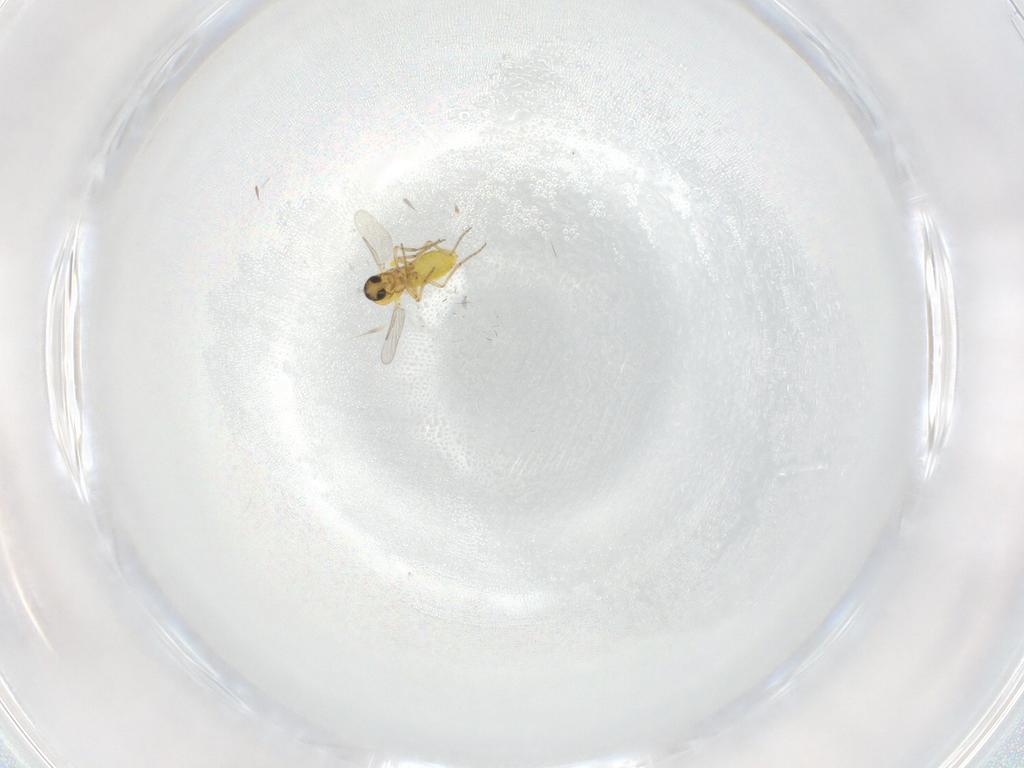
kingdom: Animalia
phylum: Arthropoda
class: Insecta
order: Diptera
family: Ceratopogonidae
